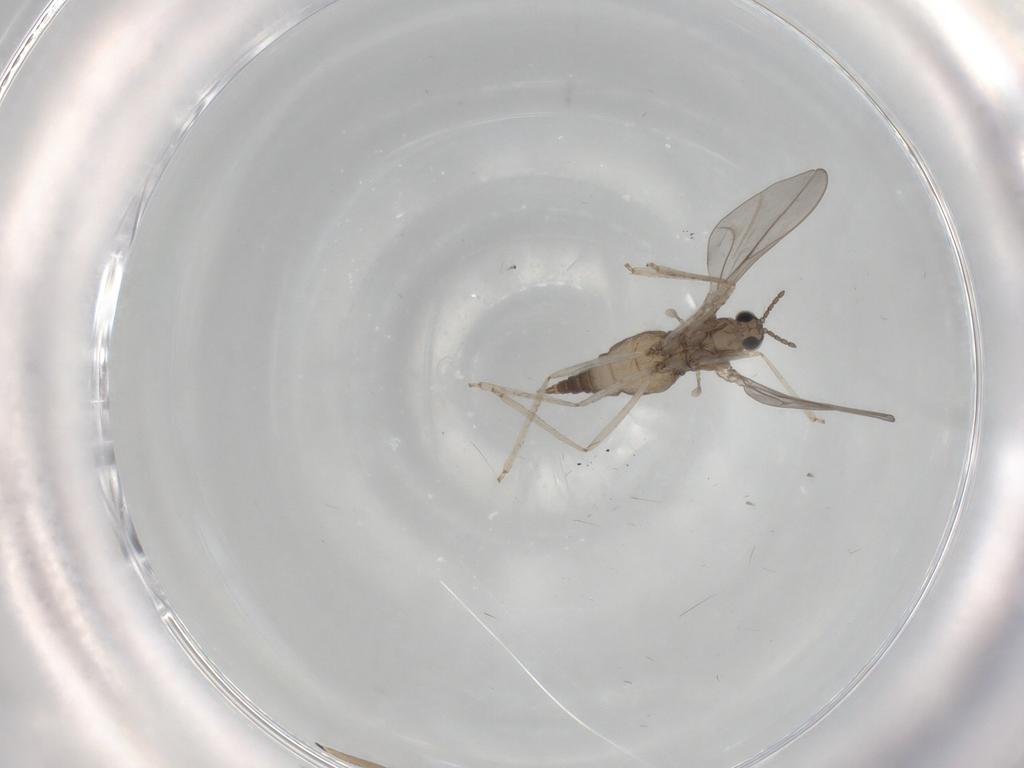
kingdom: Animalia
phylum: Arthropoda
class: Insecta
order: Diptera
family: Cecidomyiidae
